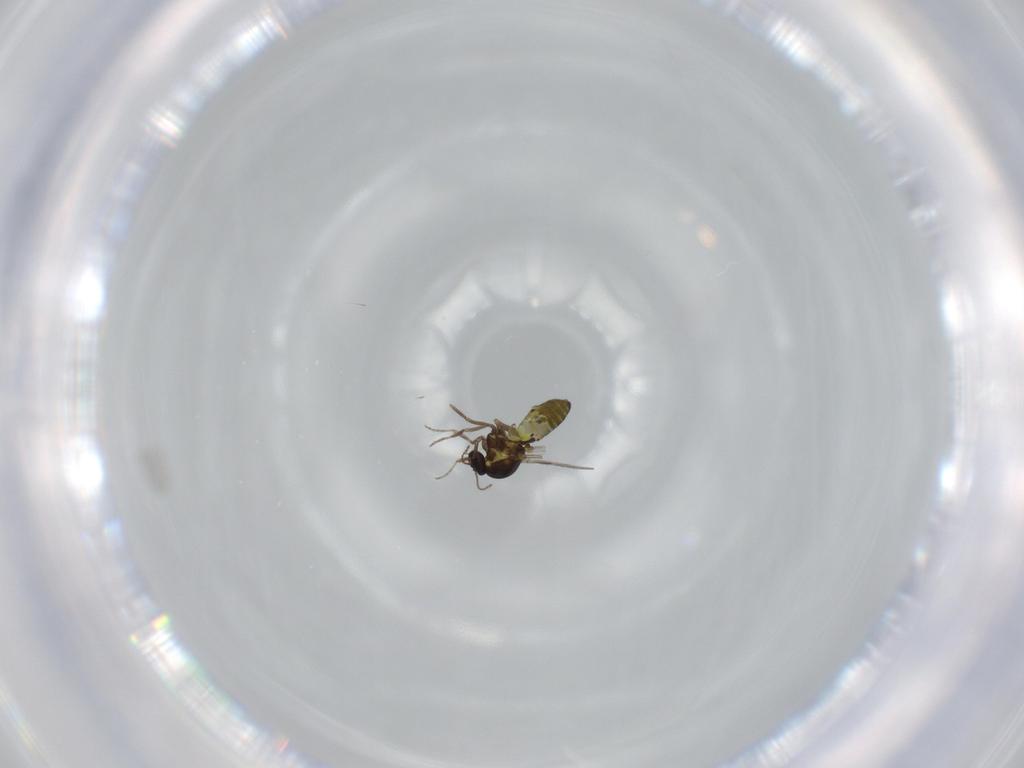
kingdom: Animalia
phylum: Arthropoda
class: Insecta
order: Diptera
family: Ceratopogonidae
